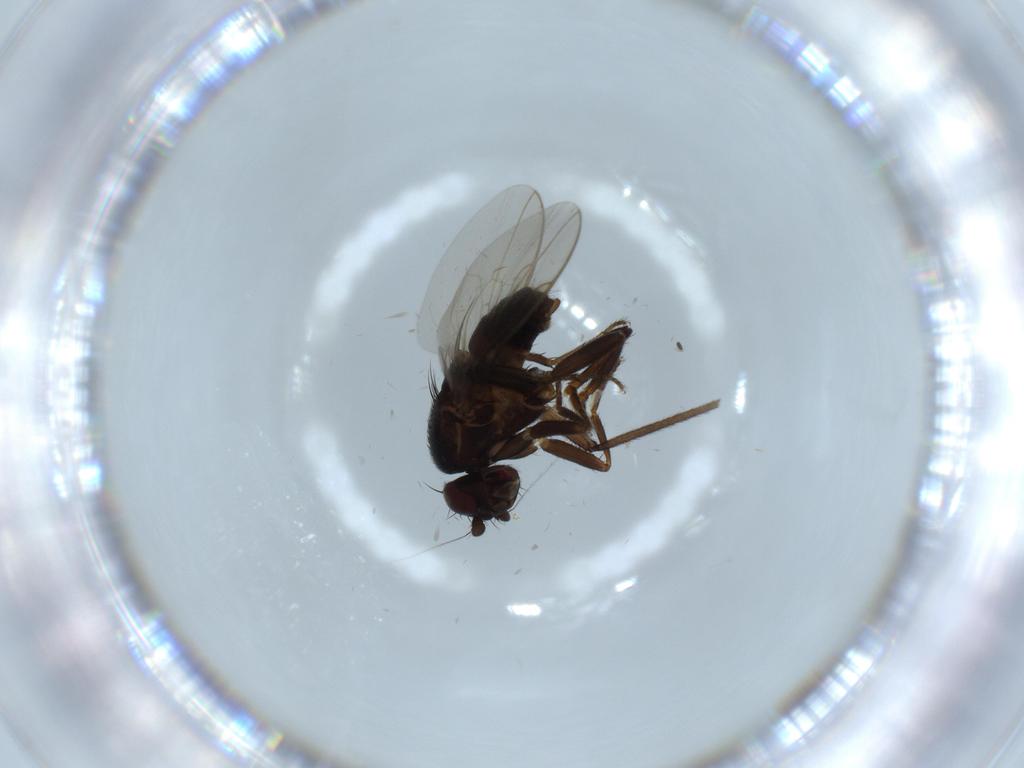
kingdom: Animalia
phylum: Arthropoda
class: Insecta
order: Diptera
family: Sciaridae
